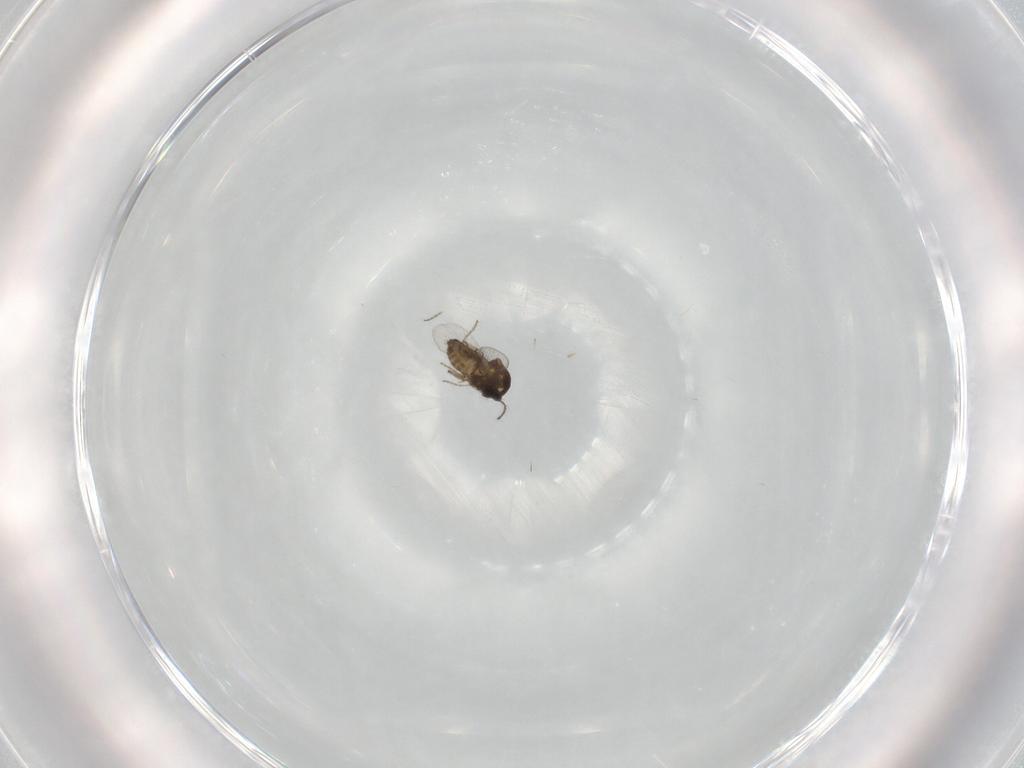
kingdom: Animalia
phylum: Arthropoda
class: Insecta
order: Diptera
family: Ceratopogonidae
